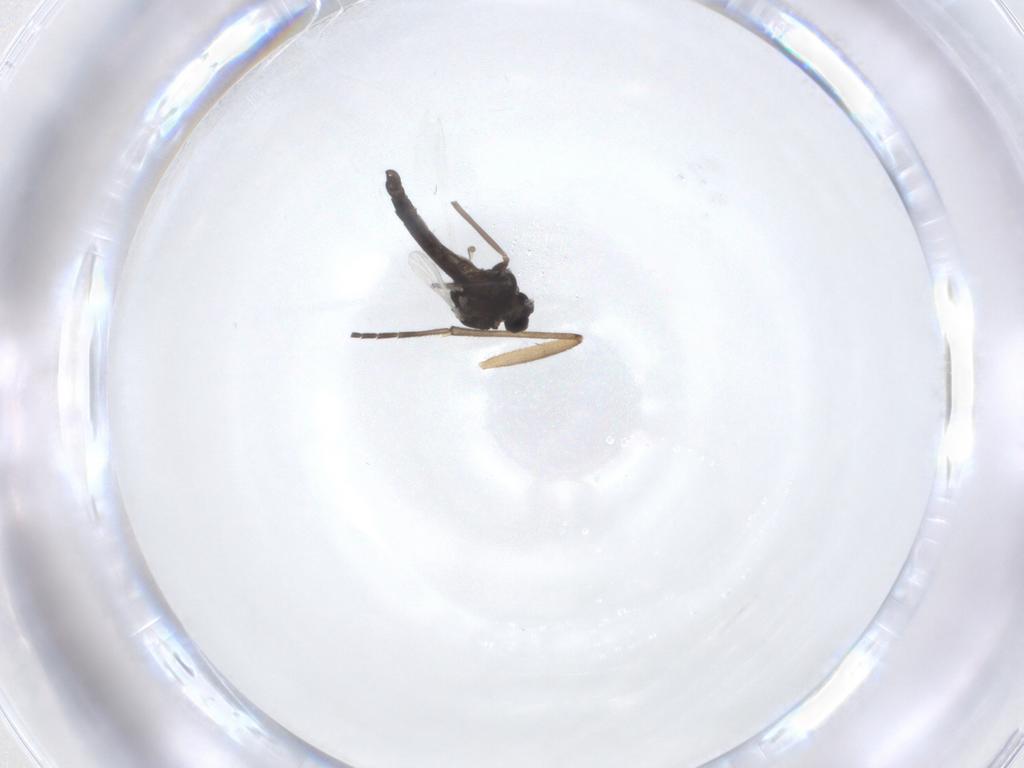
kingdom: Animalia
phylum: Arthropoda
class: Insecta
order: Diptera
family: Chironomidae
